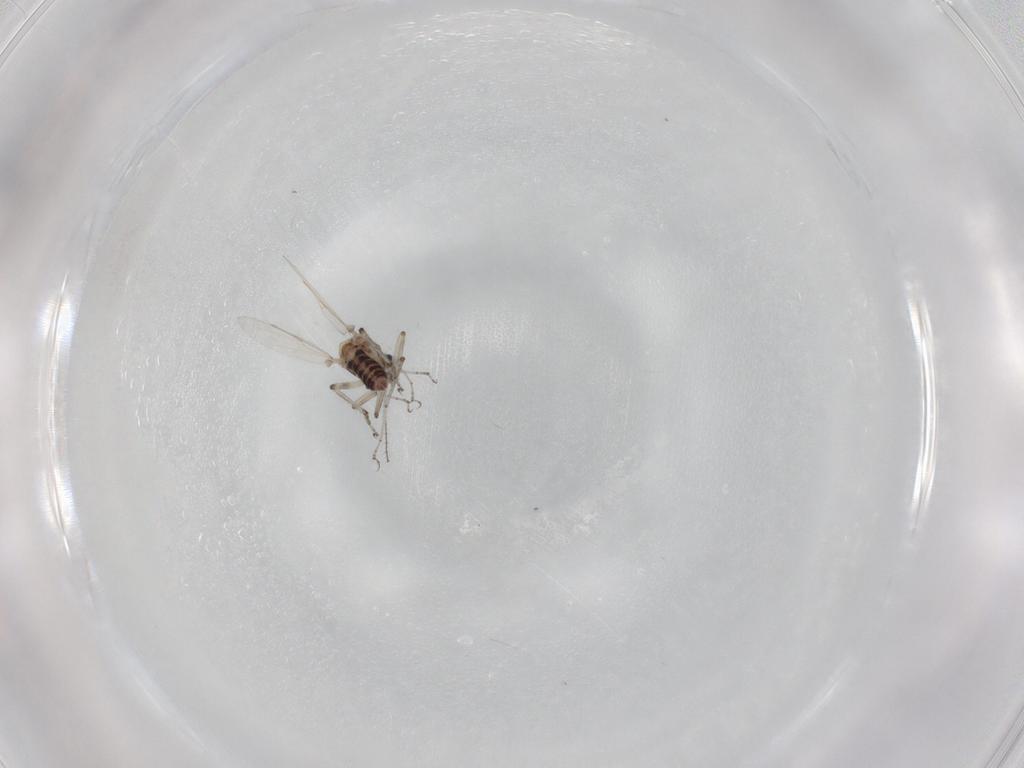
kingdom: Animalia
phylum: Arthropoda
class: Insecta
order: Diptera
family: Ceratopogonidae
